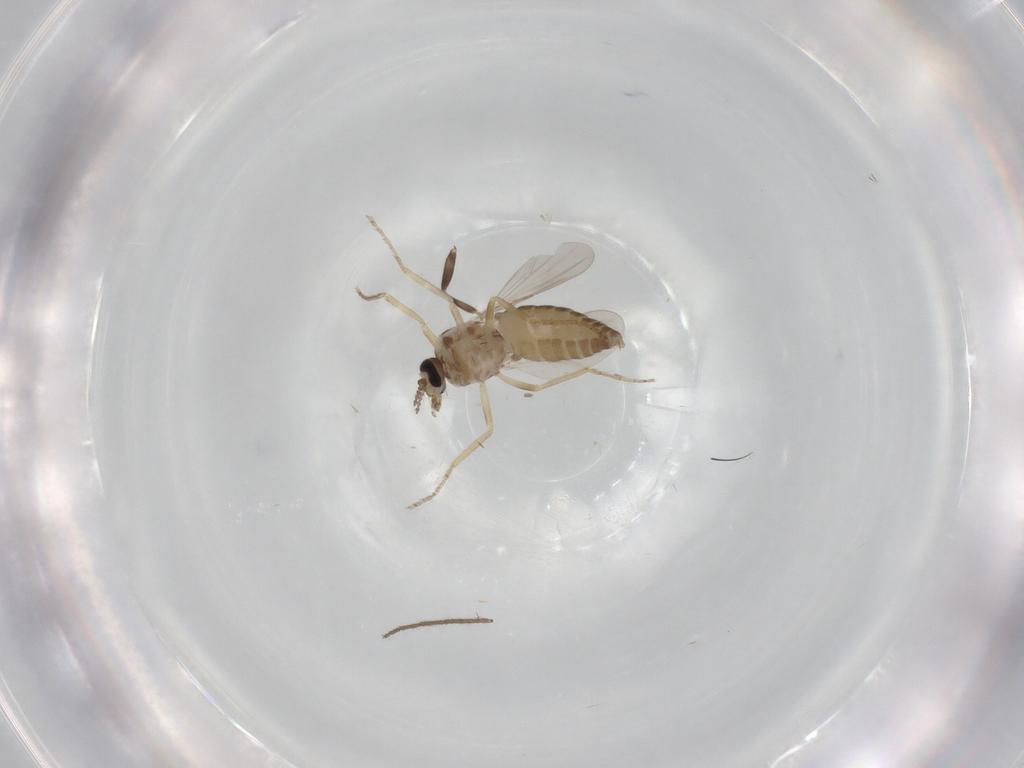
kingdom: Animalia
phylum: Arthropoda
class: Insecta
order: Diptera
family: Ceratopogonidae
